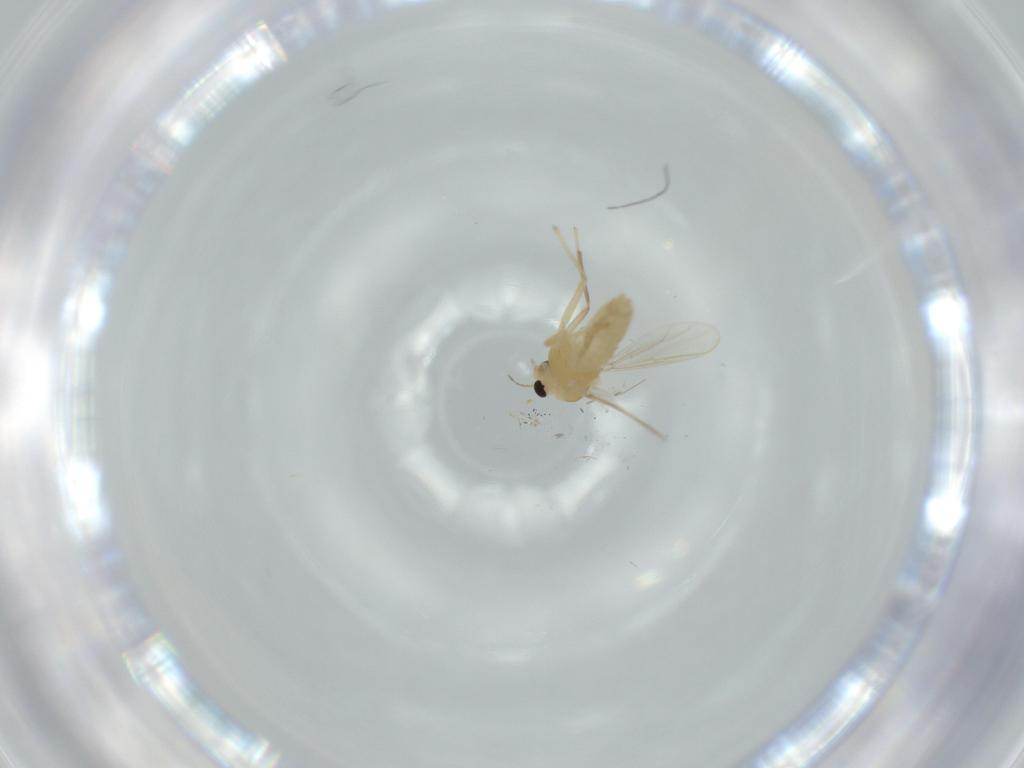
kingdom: Animalia
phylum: Arthropoda
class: Insecta
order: Diptera
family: Chironomidae
